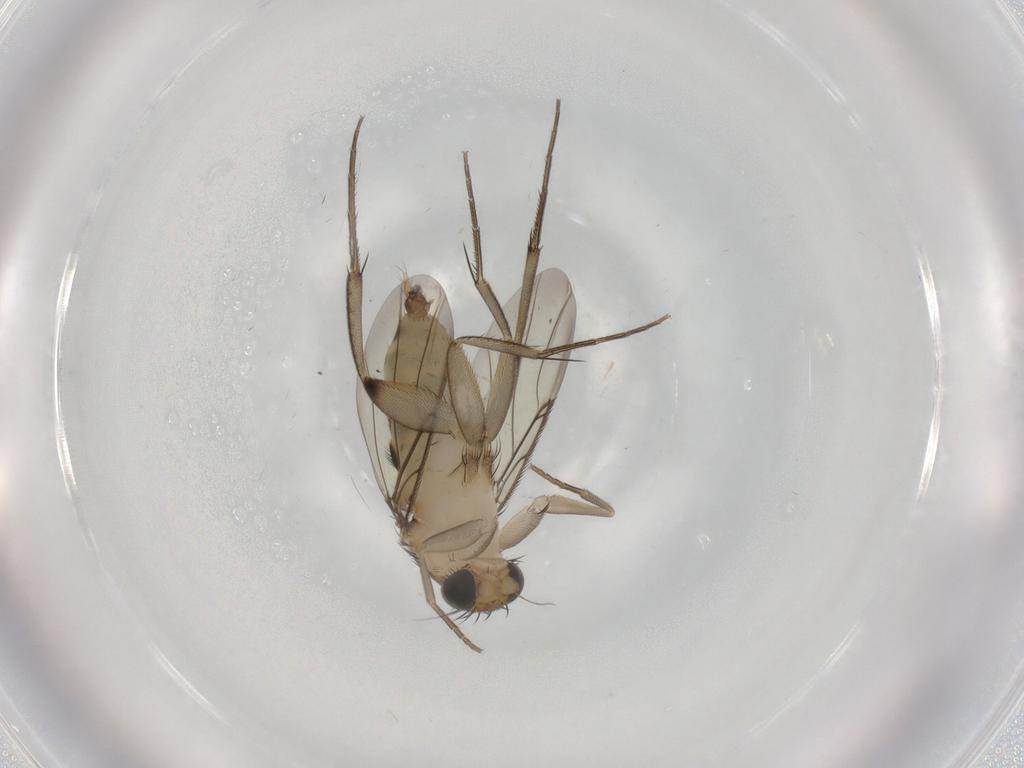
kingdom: Animalia
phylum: Arthropoda
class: Insecta
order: Diptera
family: Phoridae
